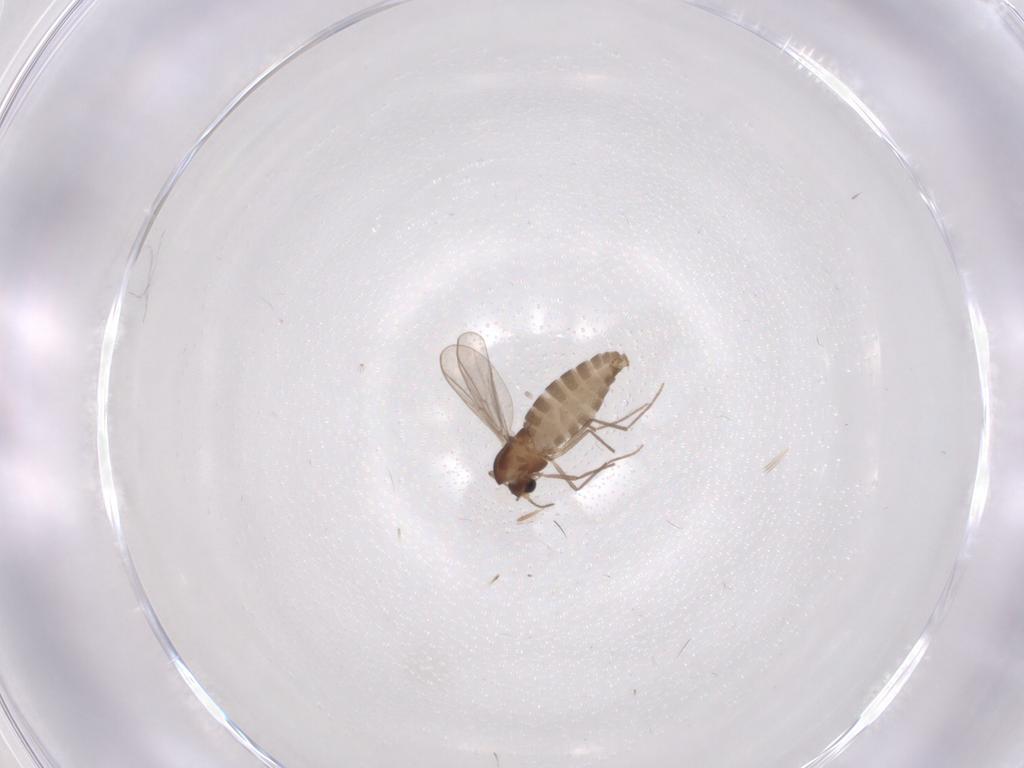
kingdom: Animalia
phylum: Arthropoda
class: Insecta
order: Diptera
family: Chironomidae
